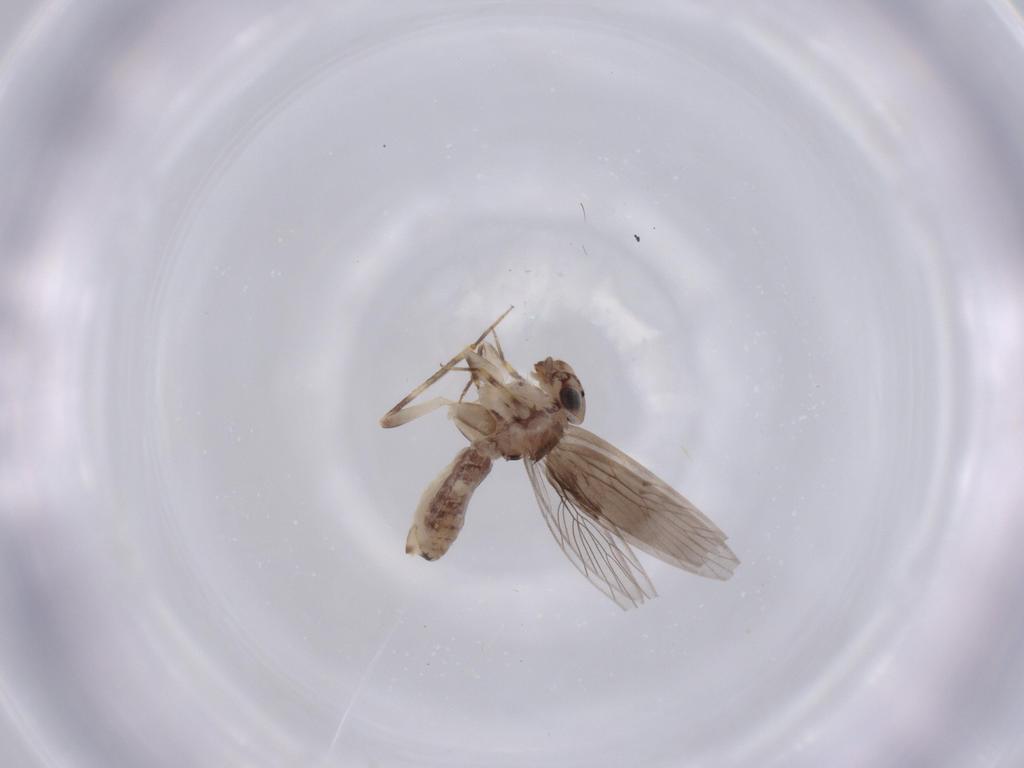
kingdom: Animalia
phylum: Arthropoda
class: Insecta
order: Psocodea
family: Lepidopsocidae
